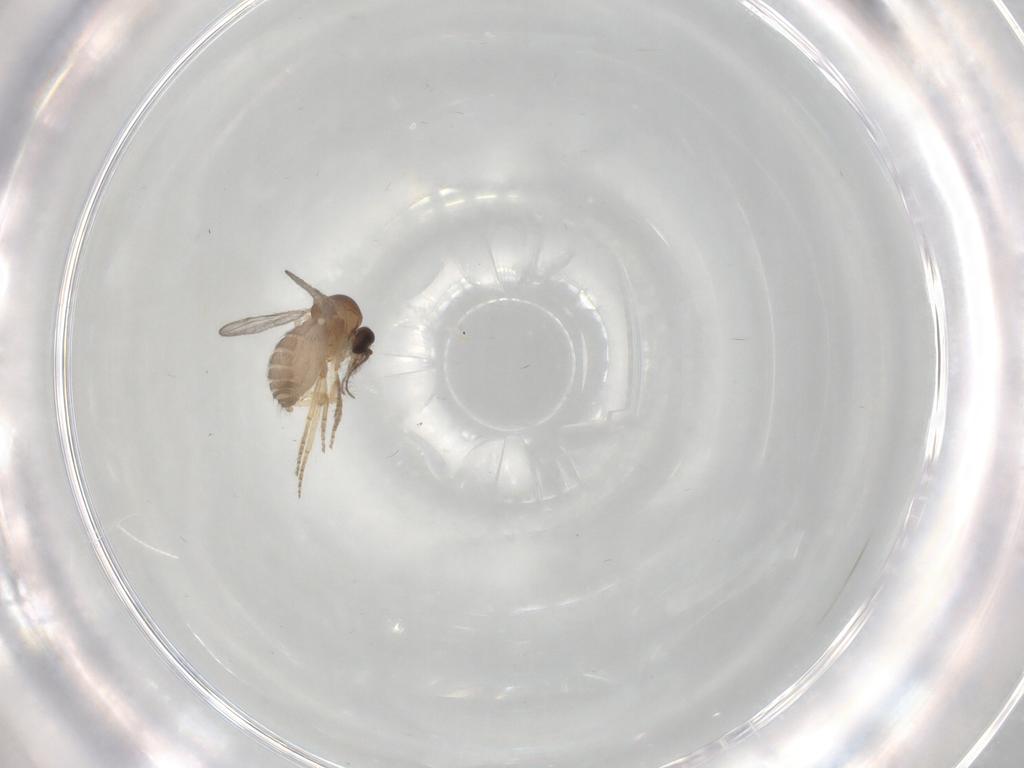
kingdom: Animalia
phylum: Arthropoda
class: Insecta
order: Diptera
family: Ceratopogonidae
